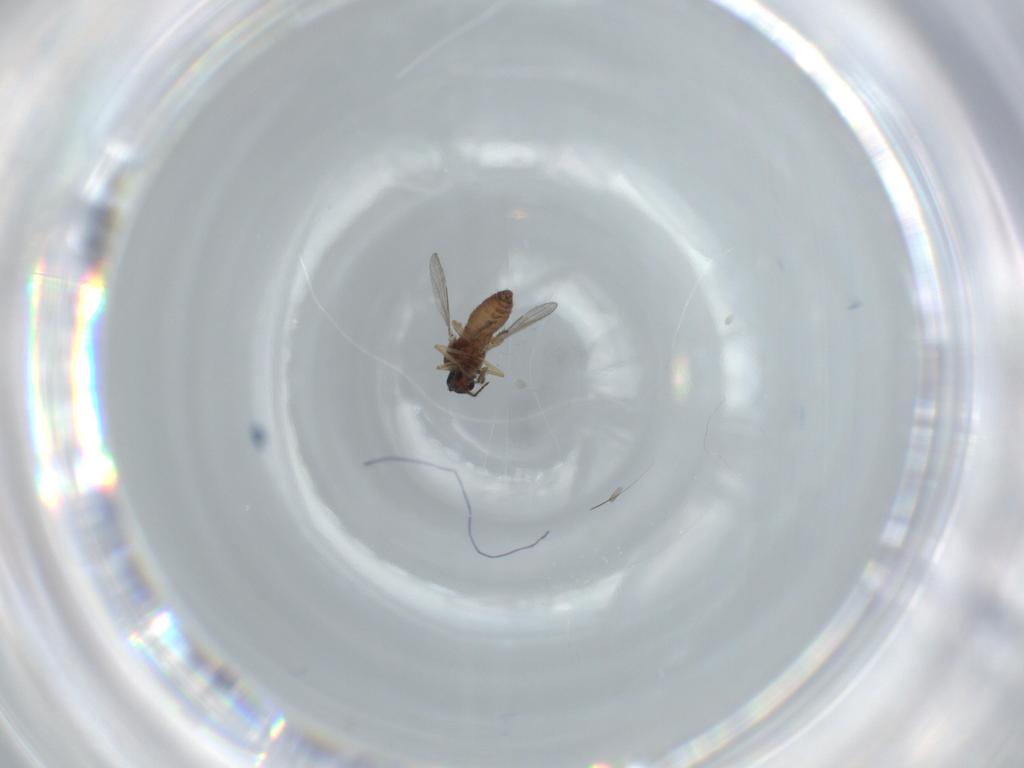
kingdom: Animalia
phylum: Arthropoda
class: Insecta
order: Diptera
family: Ceratopogonidae
